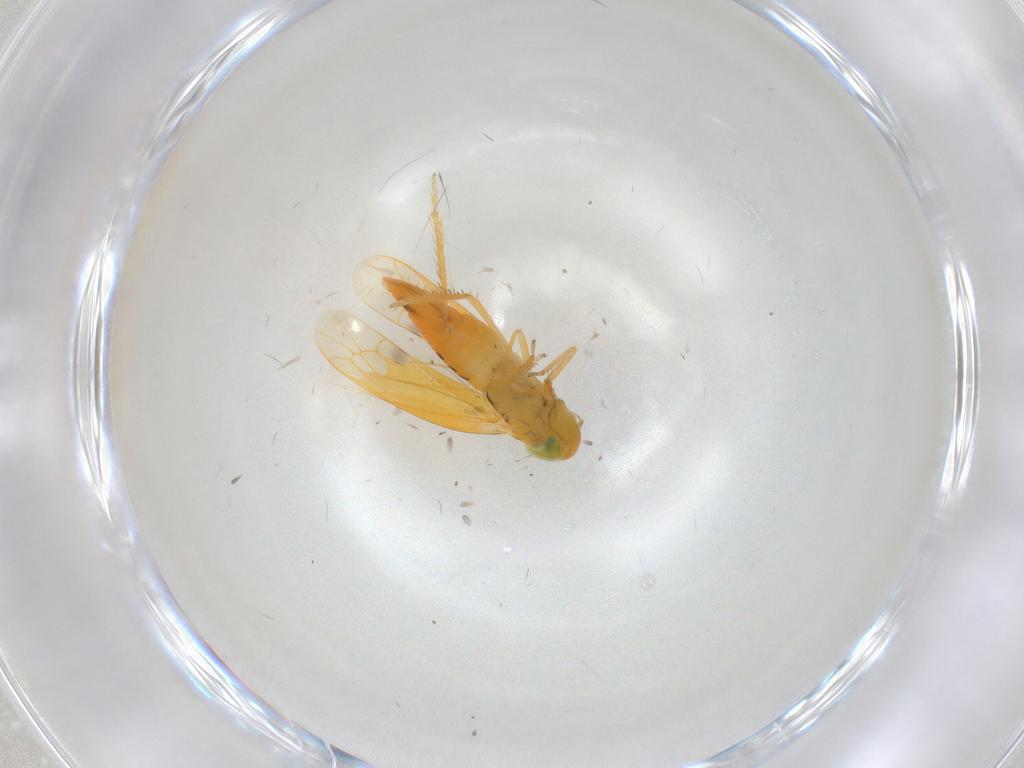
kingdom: Animalia
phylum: Arthropoda
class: Insecta
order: Hemiptera
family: Cicadellidae
